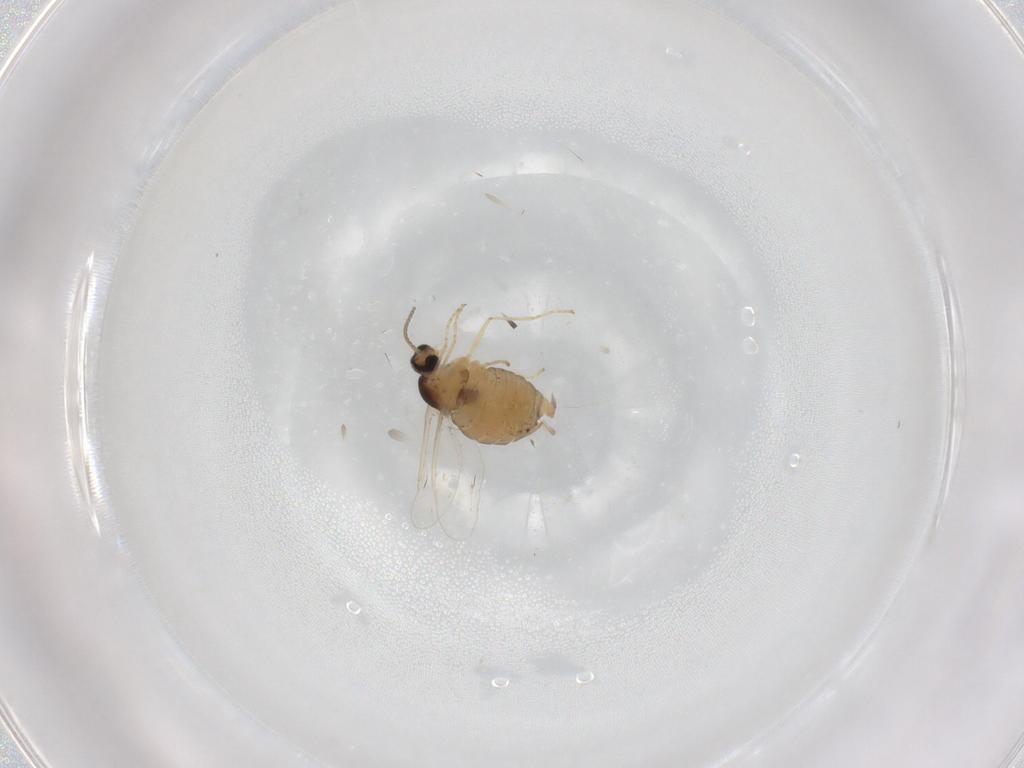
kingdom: Animalia
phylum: Arthropoda
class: Insecta
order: Diptera
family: Cecidomyiidae
